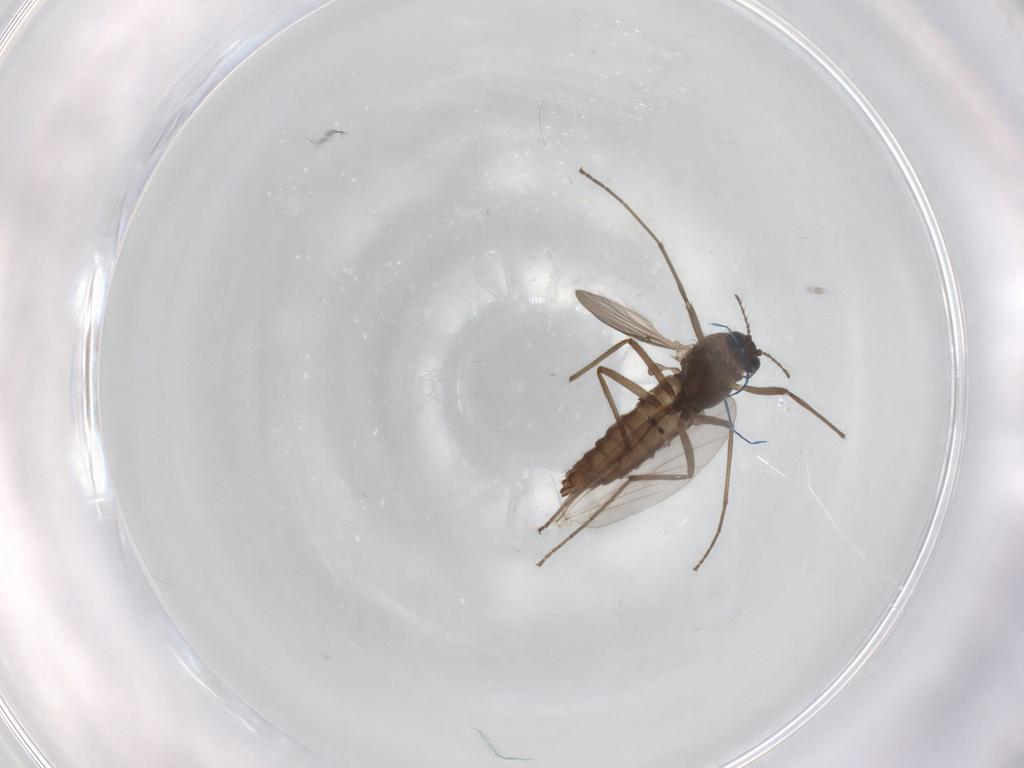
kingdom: Animalia
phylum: Arthropoda
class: Insecta
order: Diptera
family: Chironomidae
